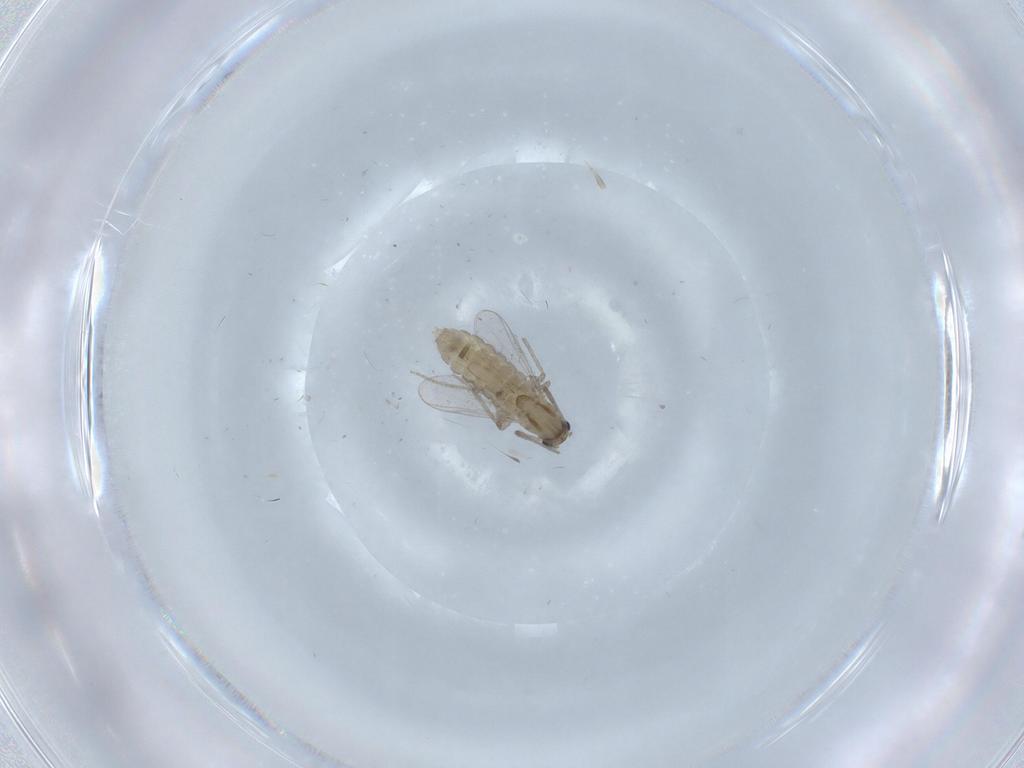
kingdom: Animalia
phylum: Arthropoda
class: Insecta
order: Diptera
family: Chironomidae
